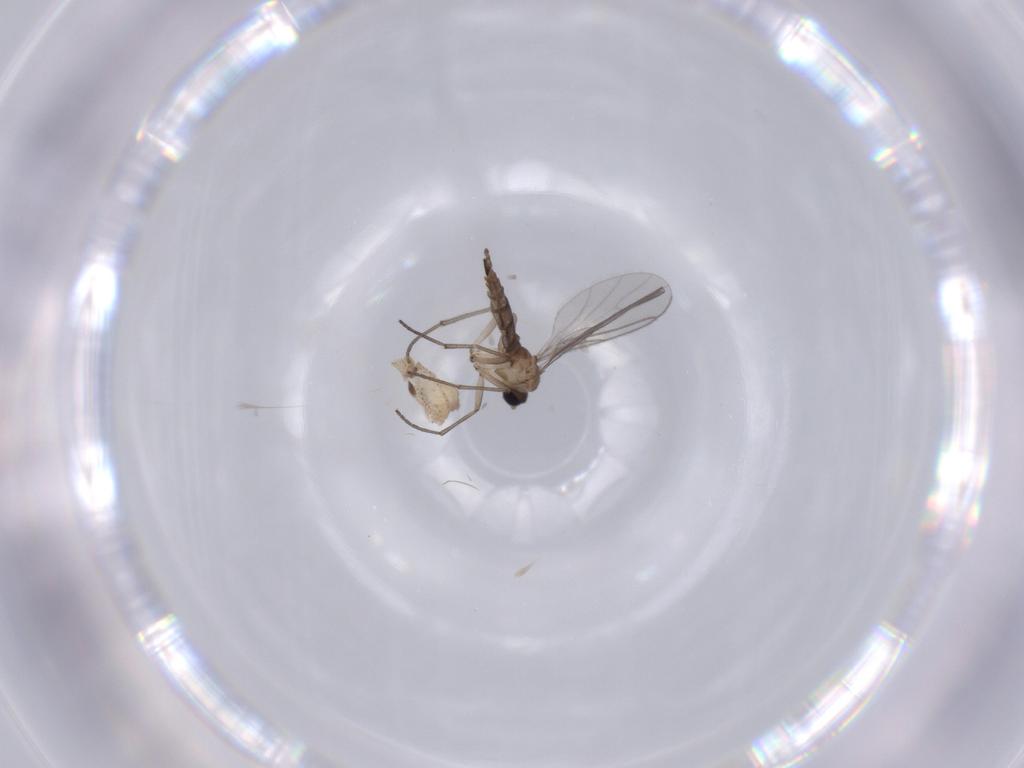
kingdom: Animalia
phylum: Arthropoda
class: Insecta
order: Diptera
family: Sciaridae
